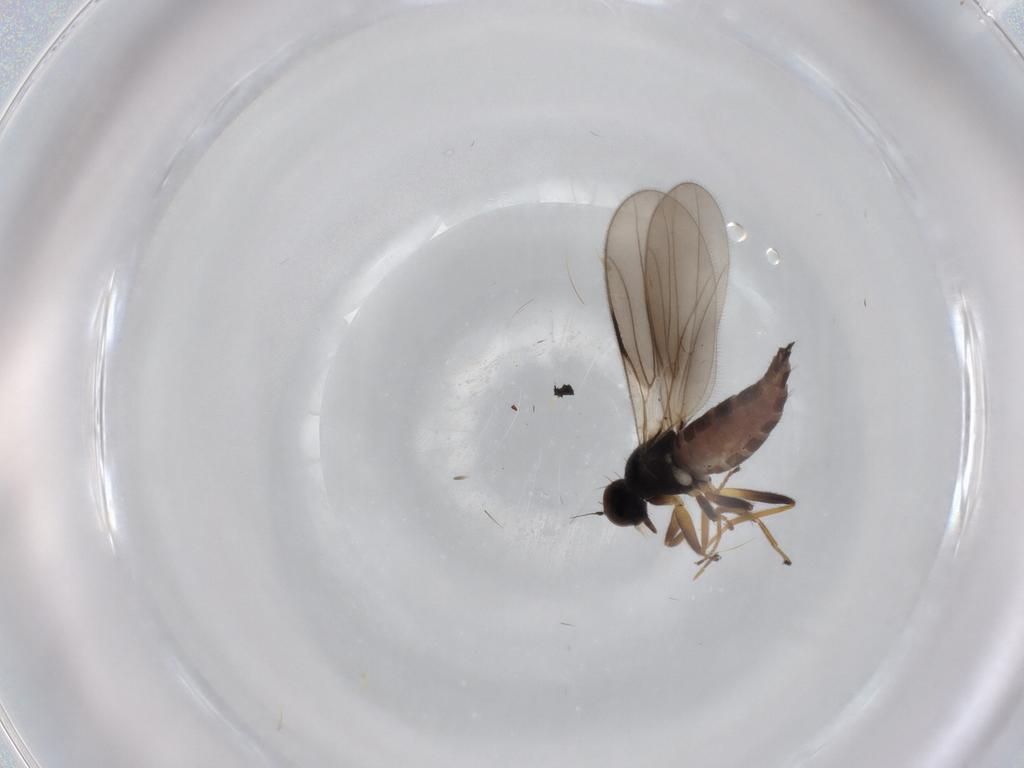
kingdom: Animalia
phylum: Arthropoda
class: Insecta
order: Diptera
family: Hybotidae
